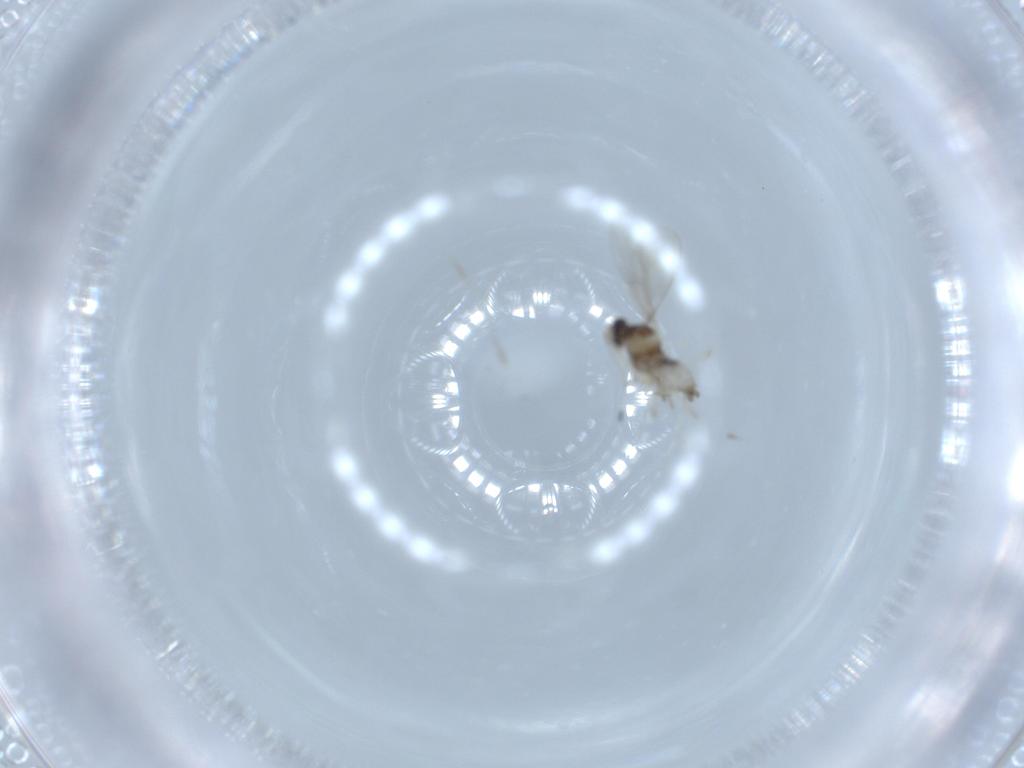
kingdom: Animalia
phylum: Arthropoda
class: Insecta
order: Diptera
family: Cecidomyiidae
